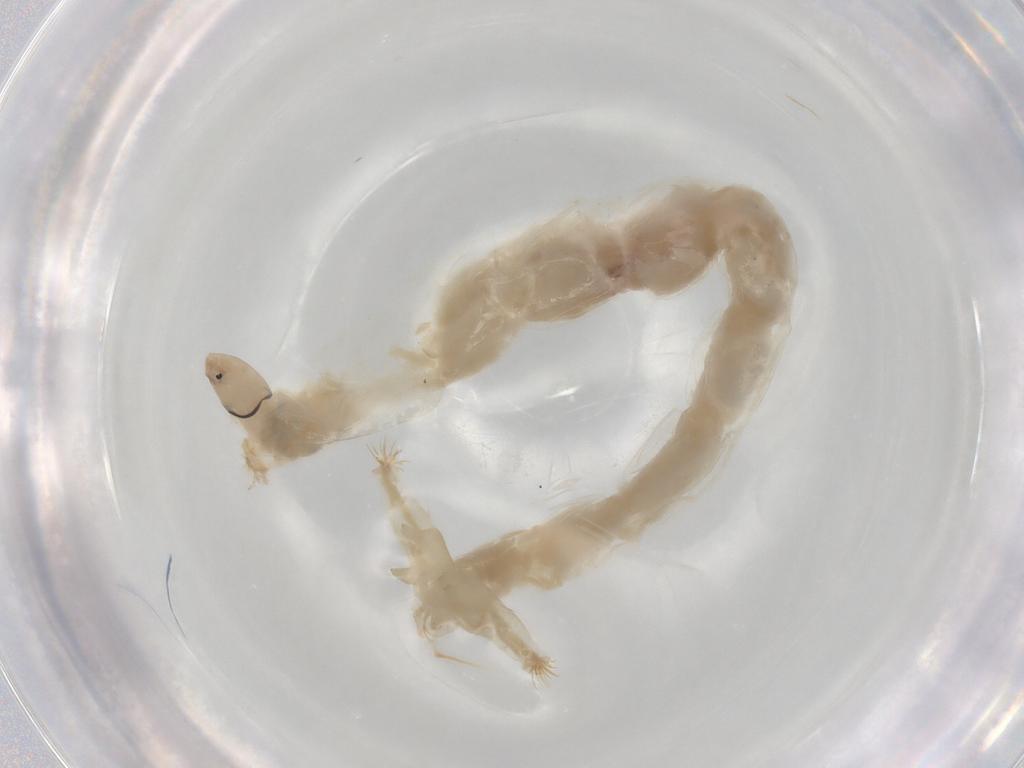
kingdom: Animalia
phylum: Arthropoda
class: Insecta
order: Diptera
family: Chironomidae
